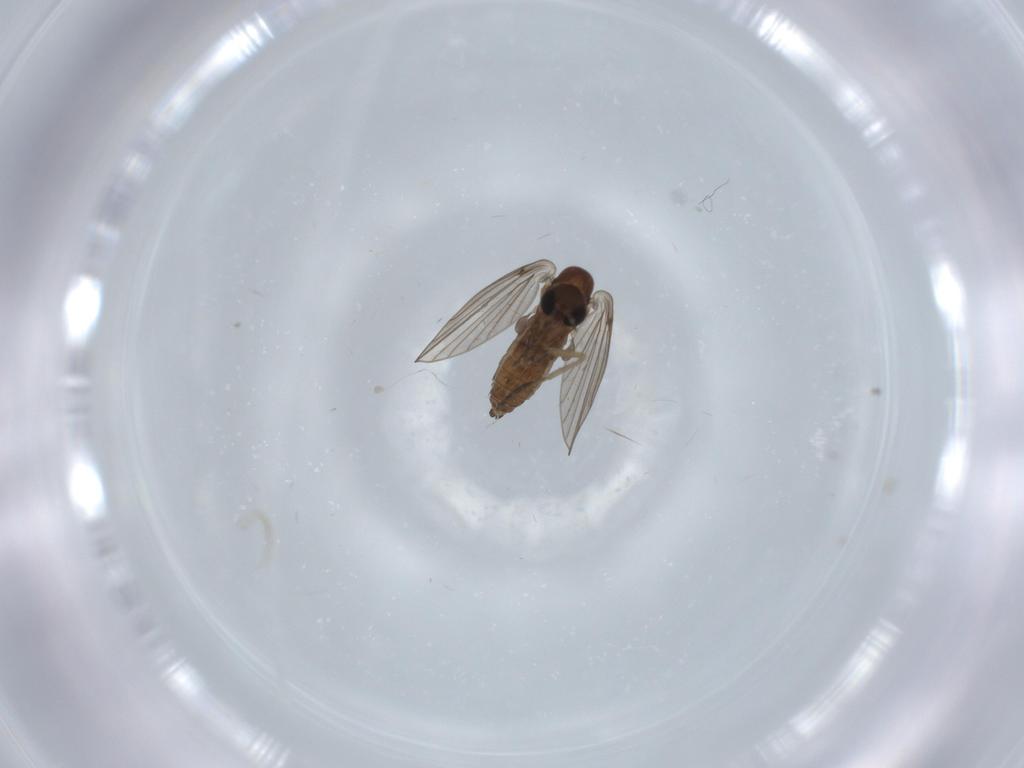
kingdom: Animalia
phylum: Arthropoda
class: Insecta
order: Diptera
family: Psychodidae
